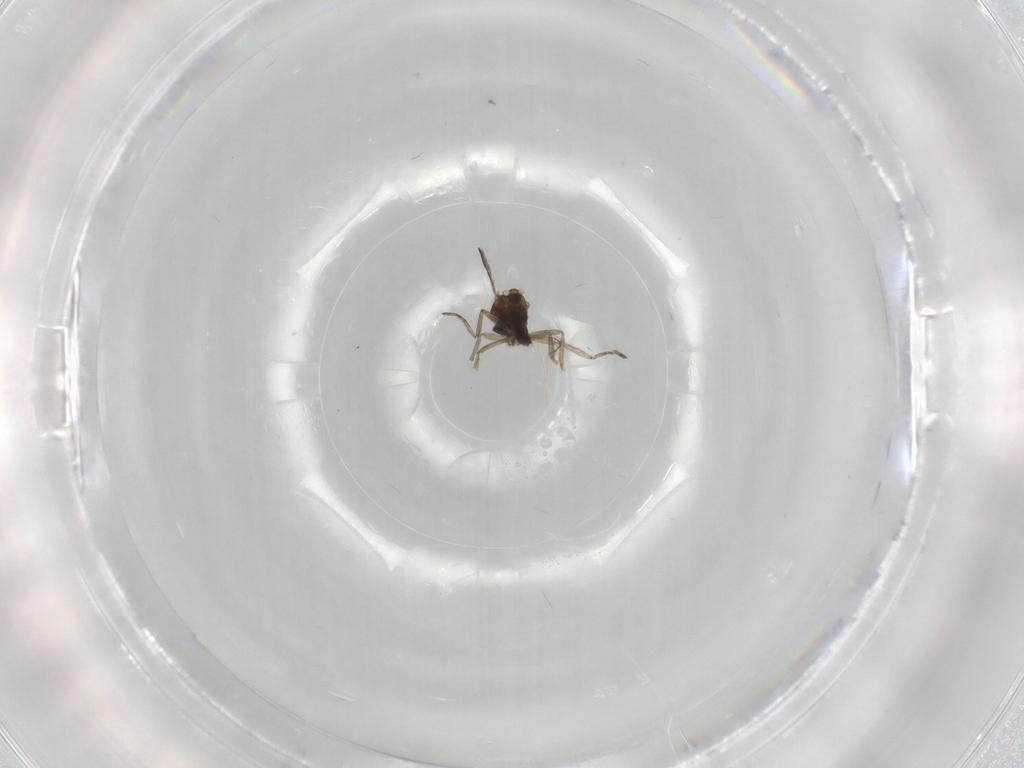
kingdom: Animalia
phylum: Arthropoda
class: Insecta
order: Diptera
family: Ceratopogonidae
